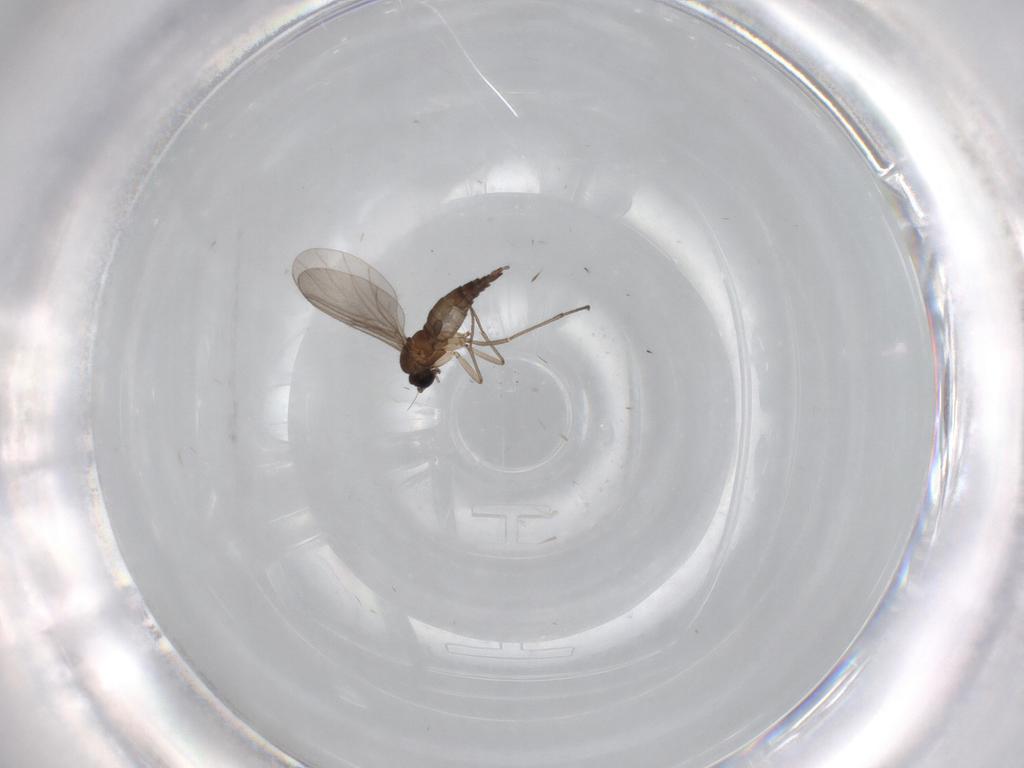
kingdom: Animalia
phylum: Arthropoda
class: Insecta
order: Diptera
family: Sciaridae
